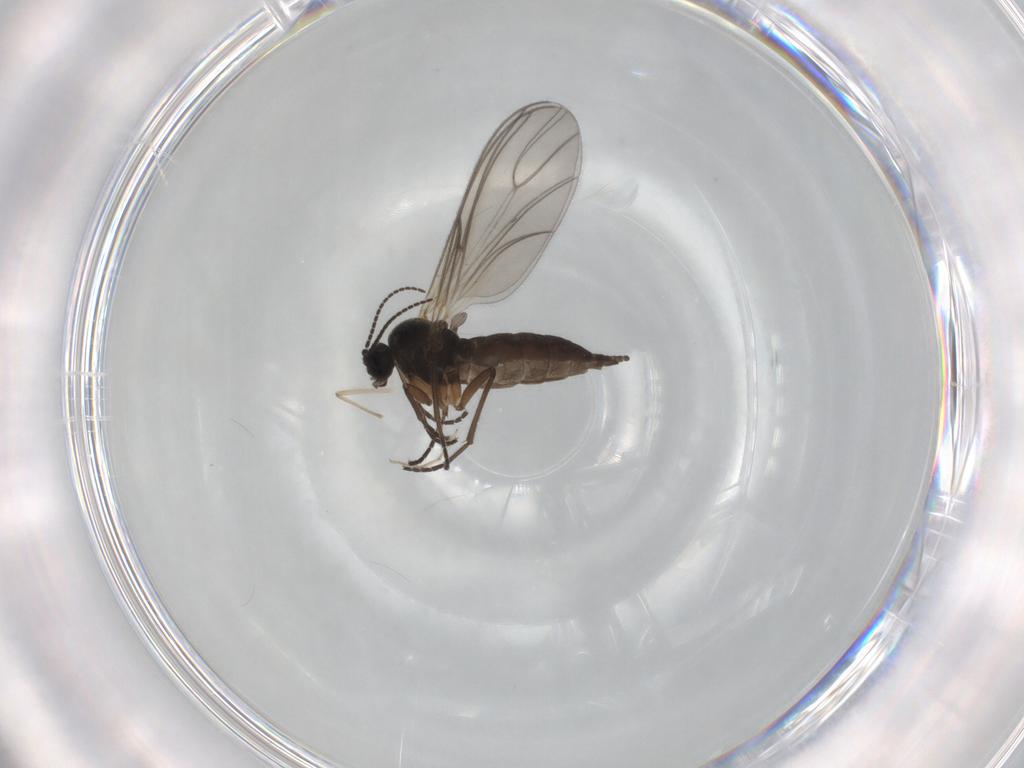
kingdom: Animalia
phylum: Arthropoda
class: Insecta
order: Diptera
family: Sciaridae
